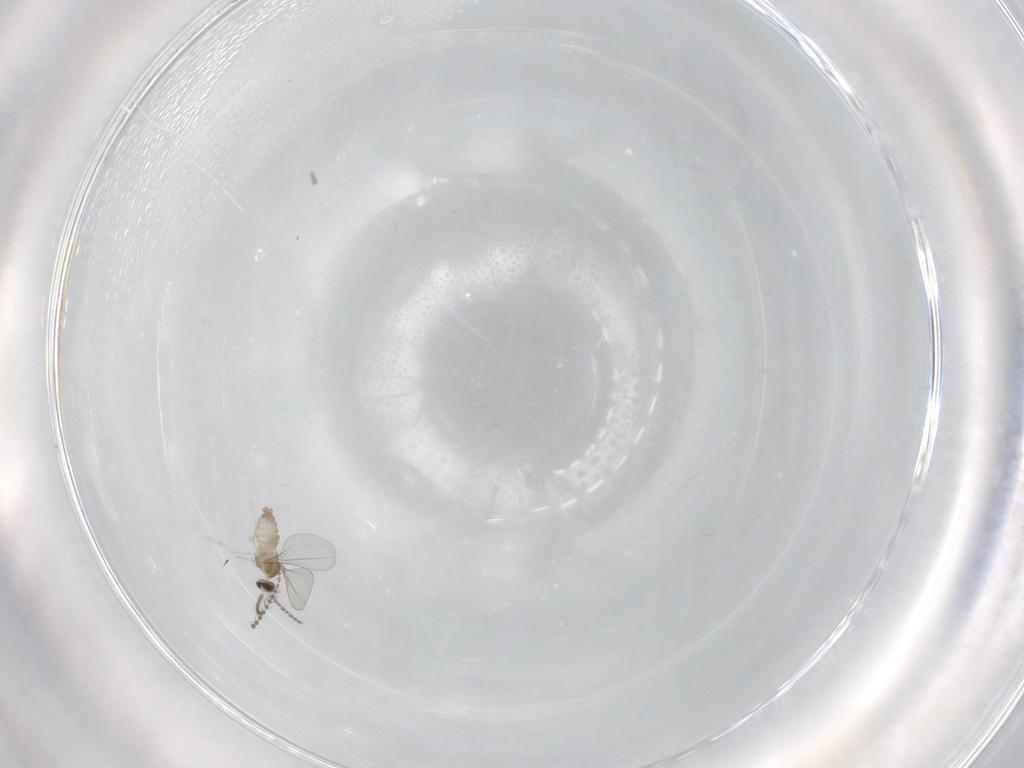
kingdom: Animalia
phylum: Arthropoda
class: Insecta
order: Diptera
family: Cecidomyiidae
